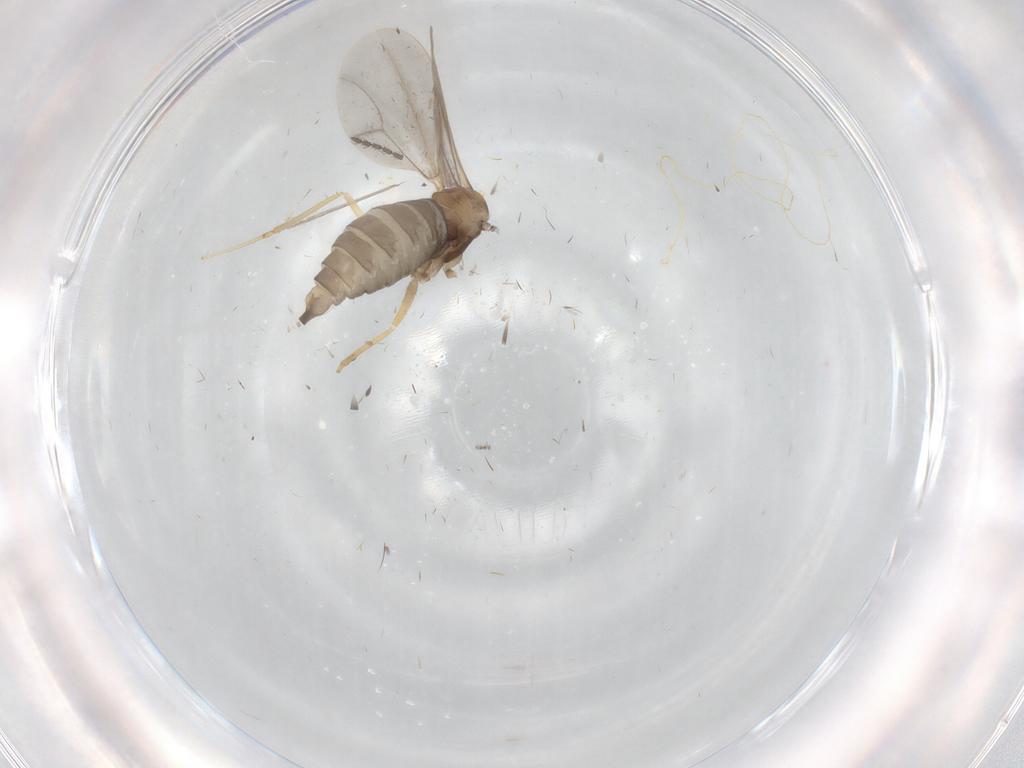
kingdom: Animalia
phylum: Arthropoda
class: Insecta
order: Diptera
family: Cecidomyiidae
